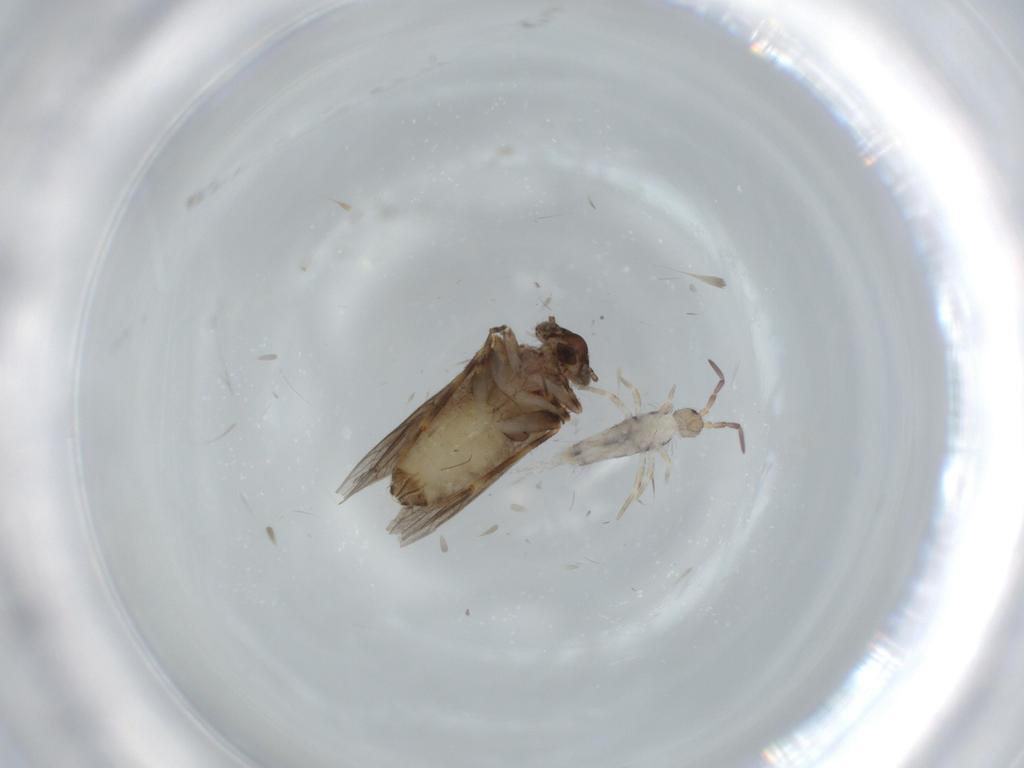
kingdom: Animalia
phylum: Arthropoda
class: Collembola
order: Entomobryomorpha
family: Entomobryidae
